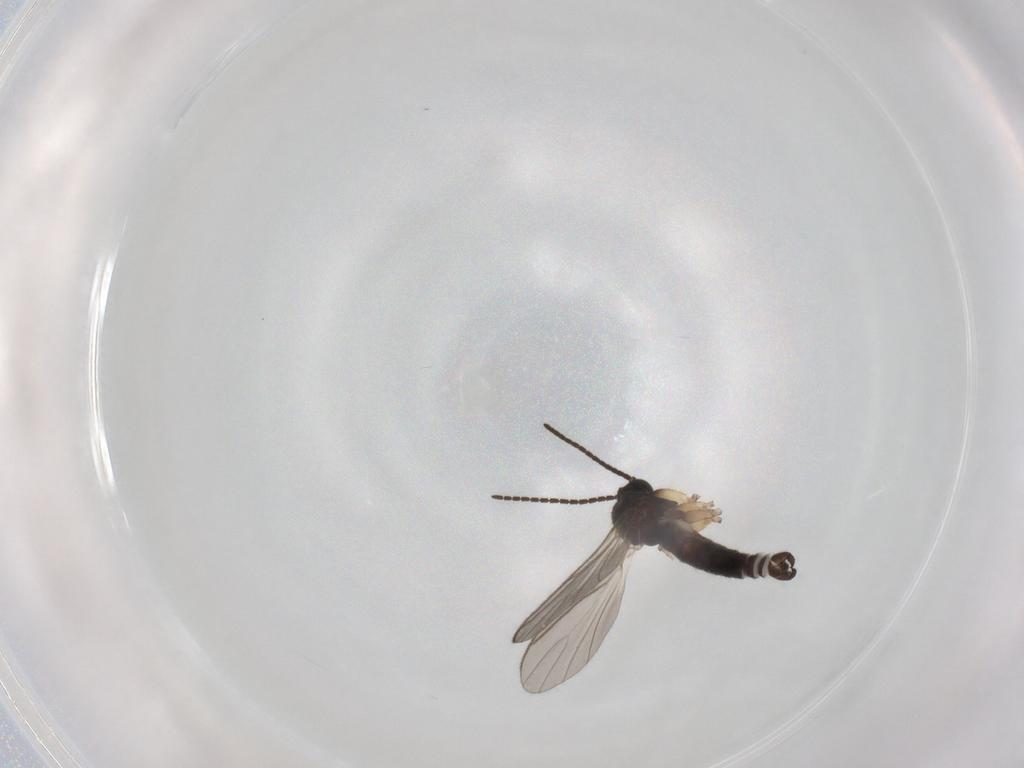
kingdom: Animalia
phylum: Arthropoda
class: Insecta
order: Diptera
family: Sciaridae
